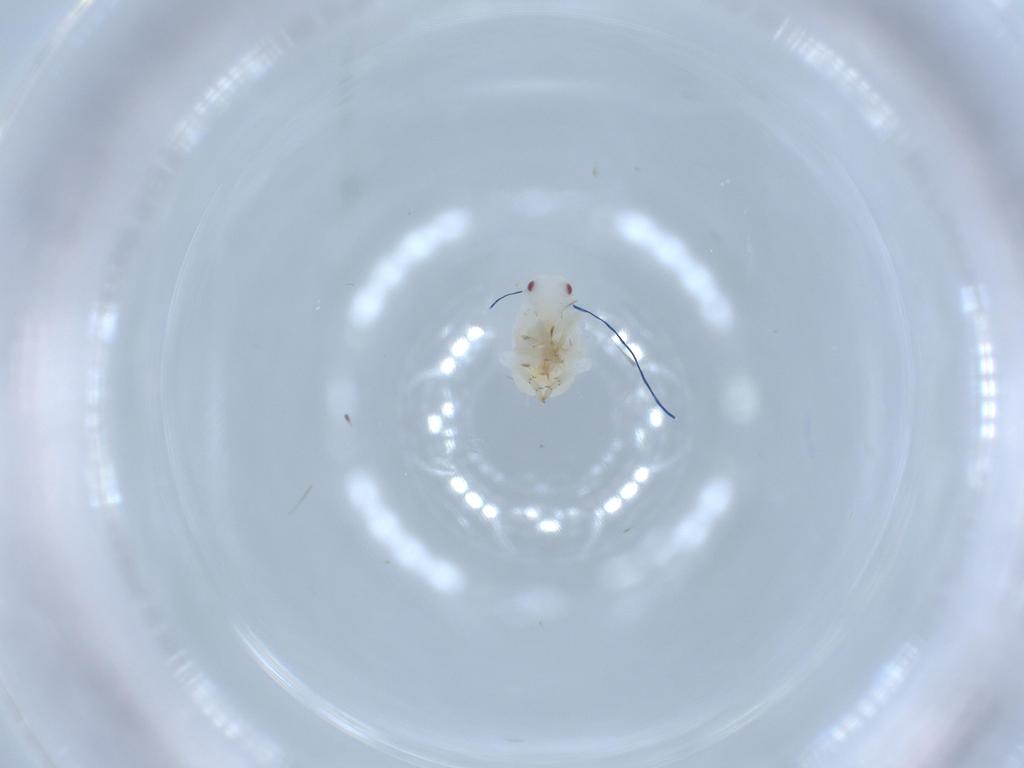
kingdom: Animalia
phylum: Arthropoda
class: Insecta
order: Hemiptera
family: Flatidae
